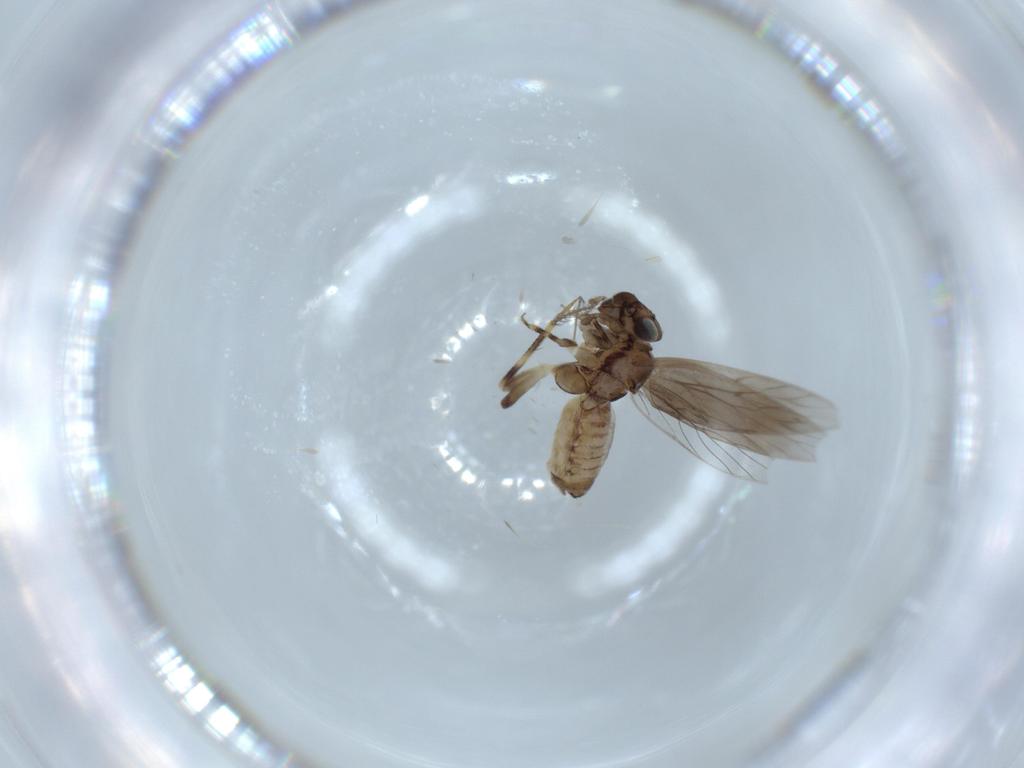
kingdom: Animalia
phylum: Arthropoda
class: Insecta
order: Psocodea
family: Lepidopsocidae
